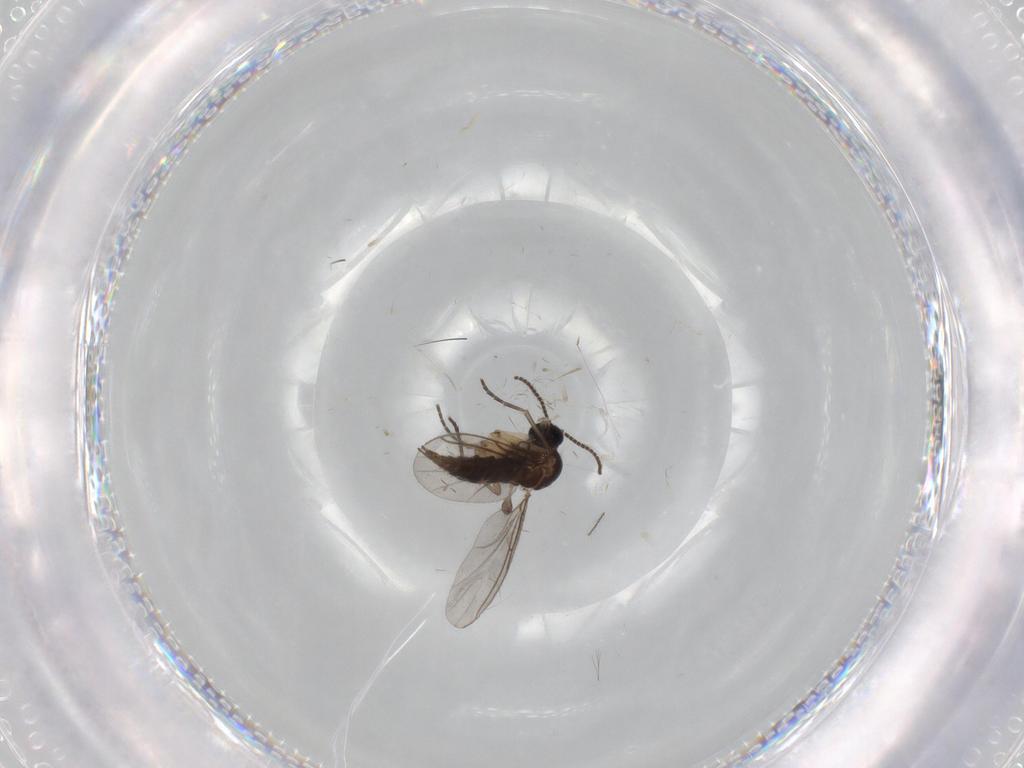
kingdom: Animalia
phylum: Arthropoda
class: Insecta
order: Diptera
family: Sciaridae
